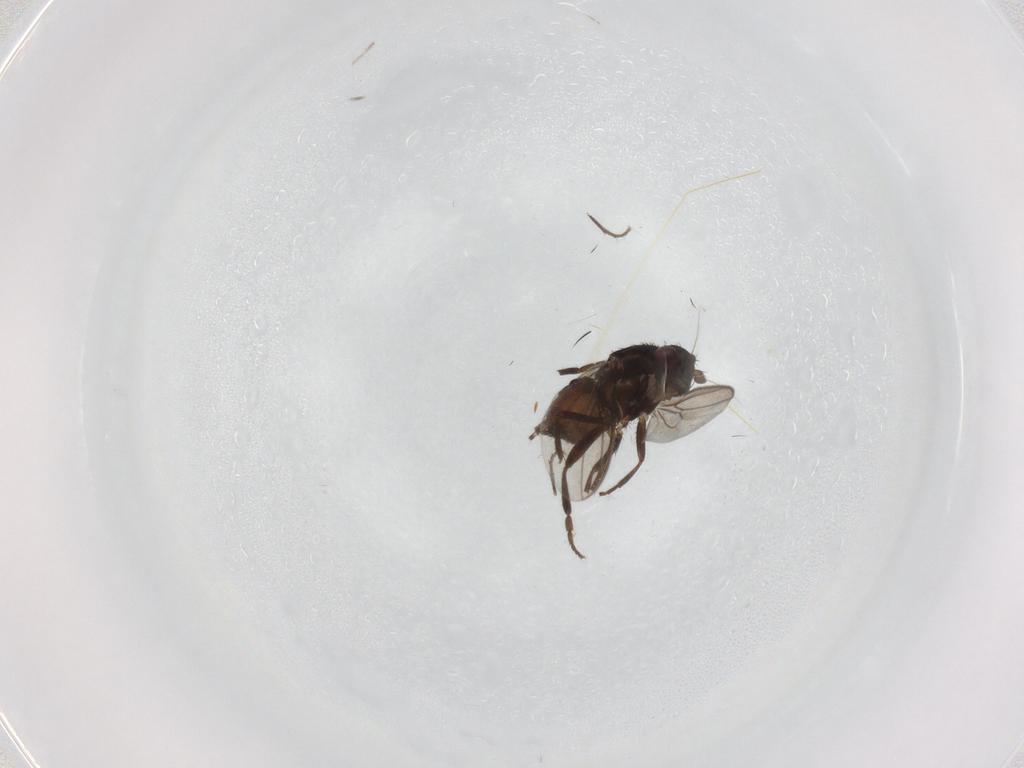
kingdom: Animalia
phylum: Arthropoda
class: Insecta
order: Diptera
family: Sphaeroceridae
